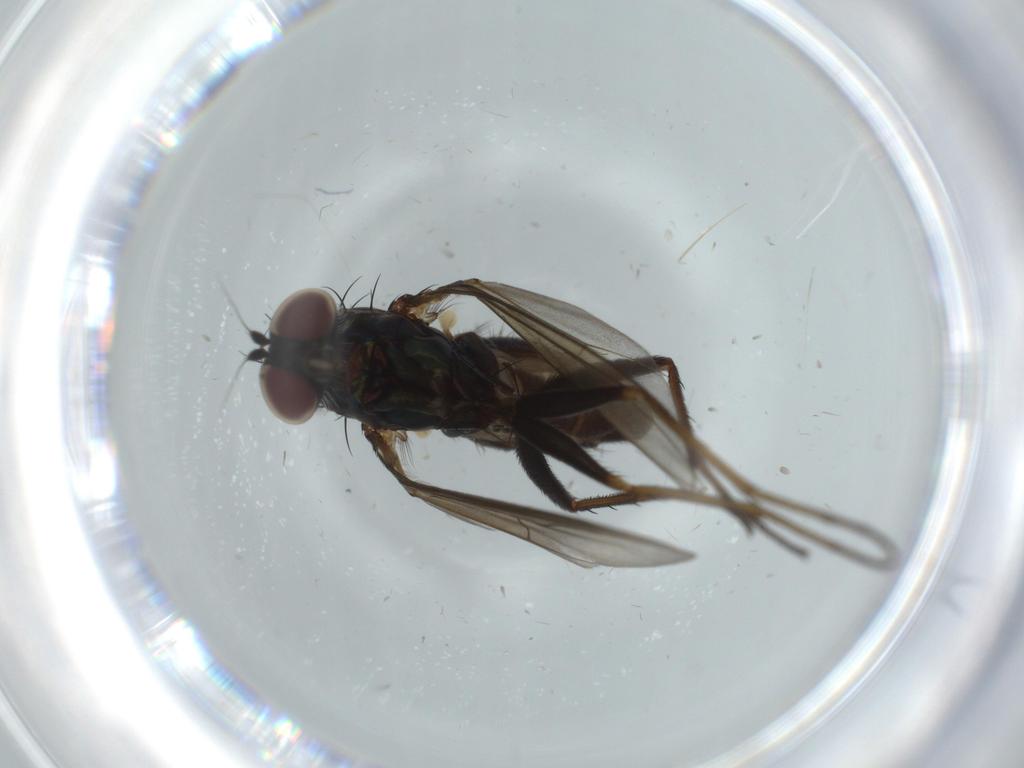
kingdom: Animalia
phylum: Arthropoda
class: Insecta
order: Diptera
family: Dolichopodidae
